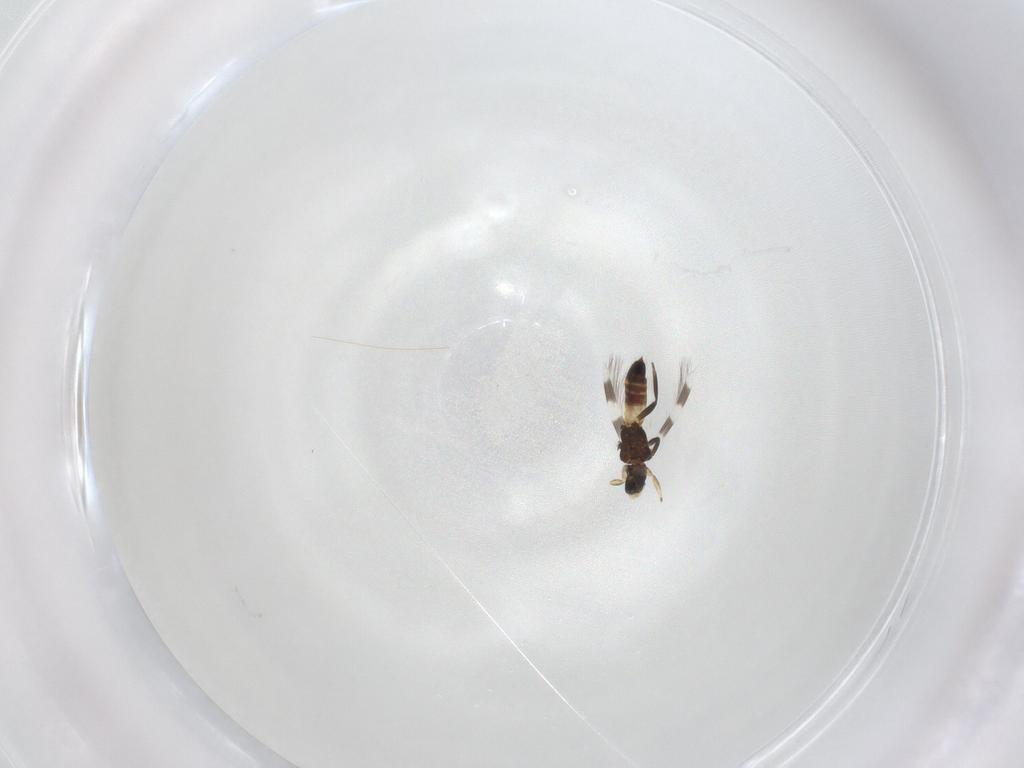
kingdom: Animalia
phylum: Arthropoda
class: Insecta
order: Thysanoptera
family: Aeolothripidae
